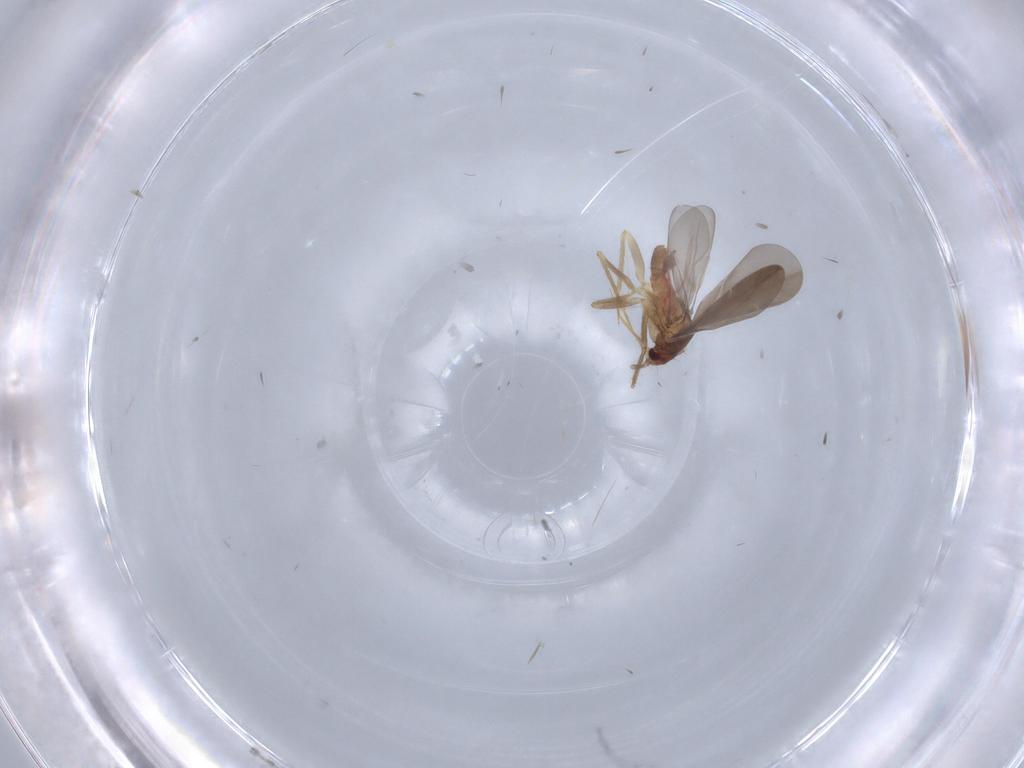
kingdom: Animalia
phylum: Arthropoda
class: Insecta
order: Hemiptera
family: Ceratocombidae
